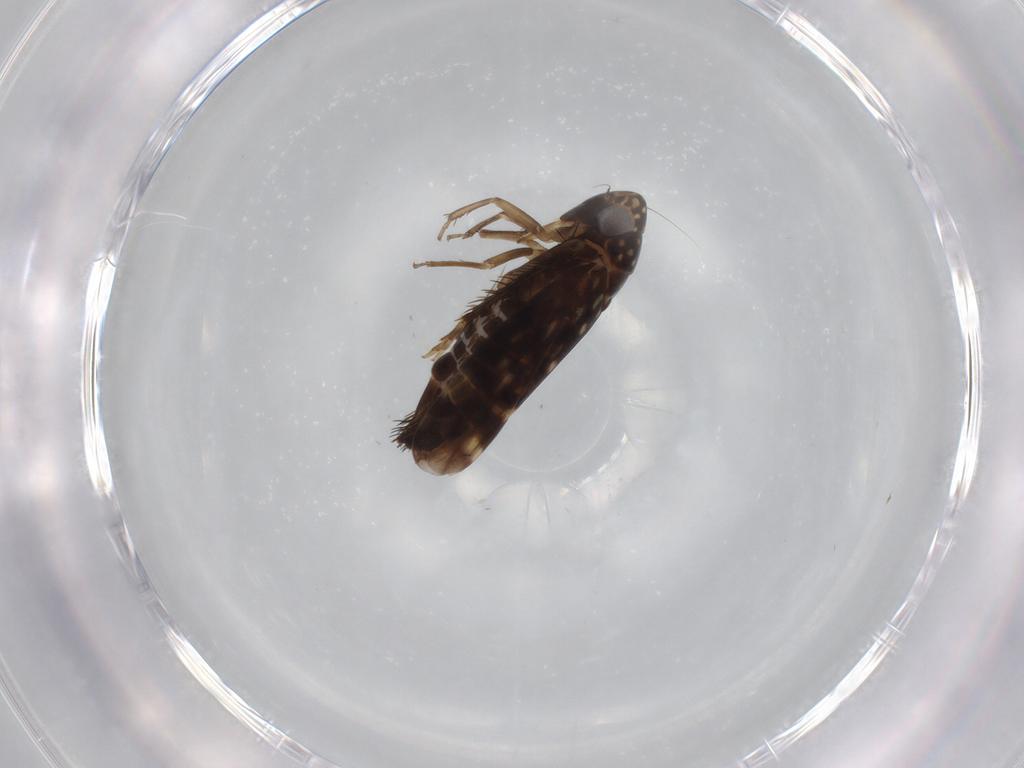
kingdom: Animalia
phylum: Arthropoda
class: Insecta
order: Hemiptera
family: Cicadellidae
